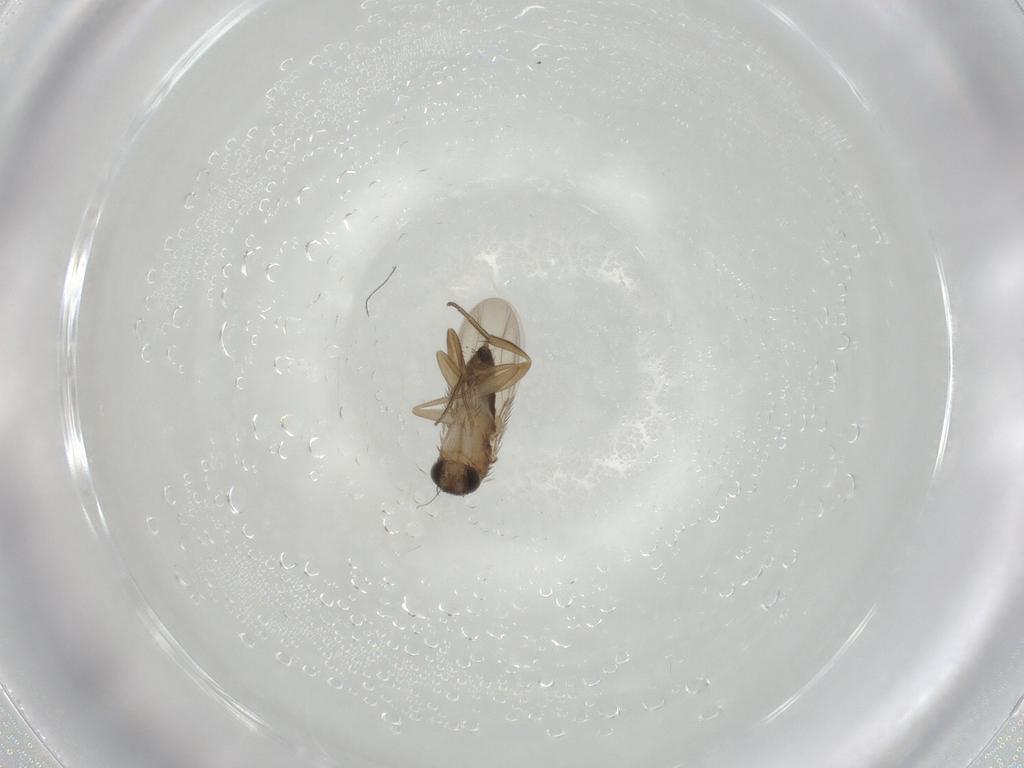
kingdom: Animalia
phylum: Arthropoda
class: Insecta
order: Diptera
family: Phoridae
